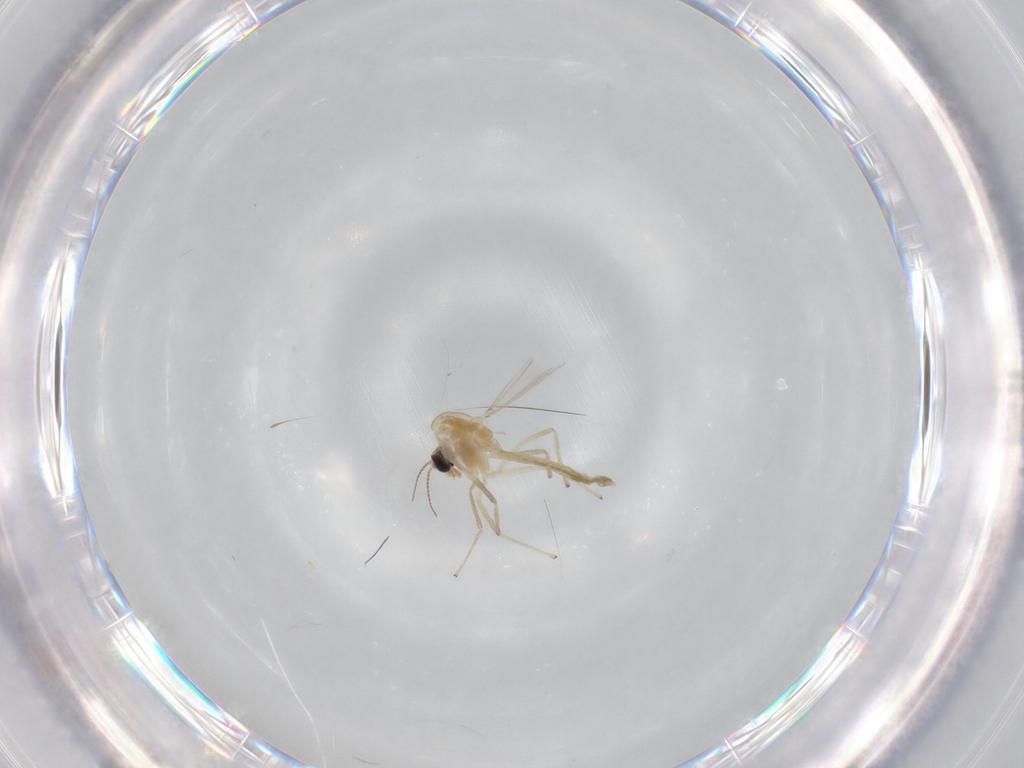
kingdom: Animalia
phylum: Arthropoda
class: Insecta
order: Diptera
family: Chironomidae
